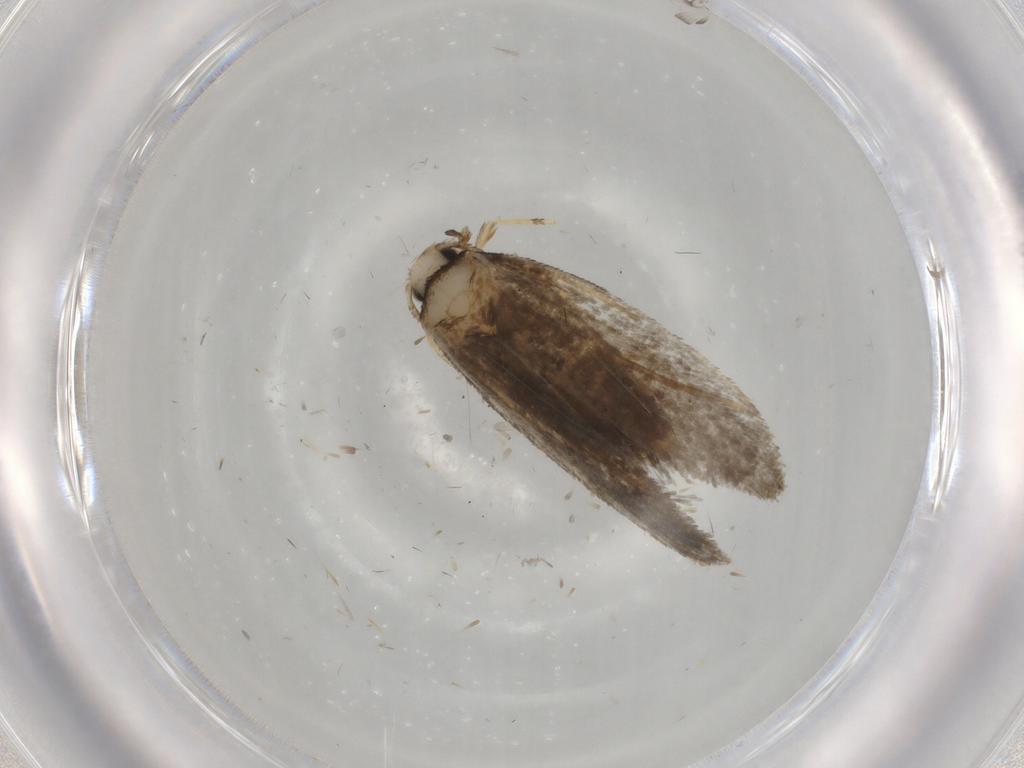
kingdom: Animalia
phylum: Arthropoda
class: Insecta
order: Lepidoptera
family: Psychidae
